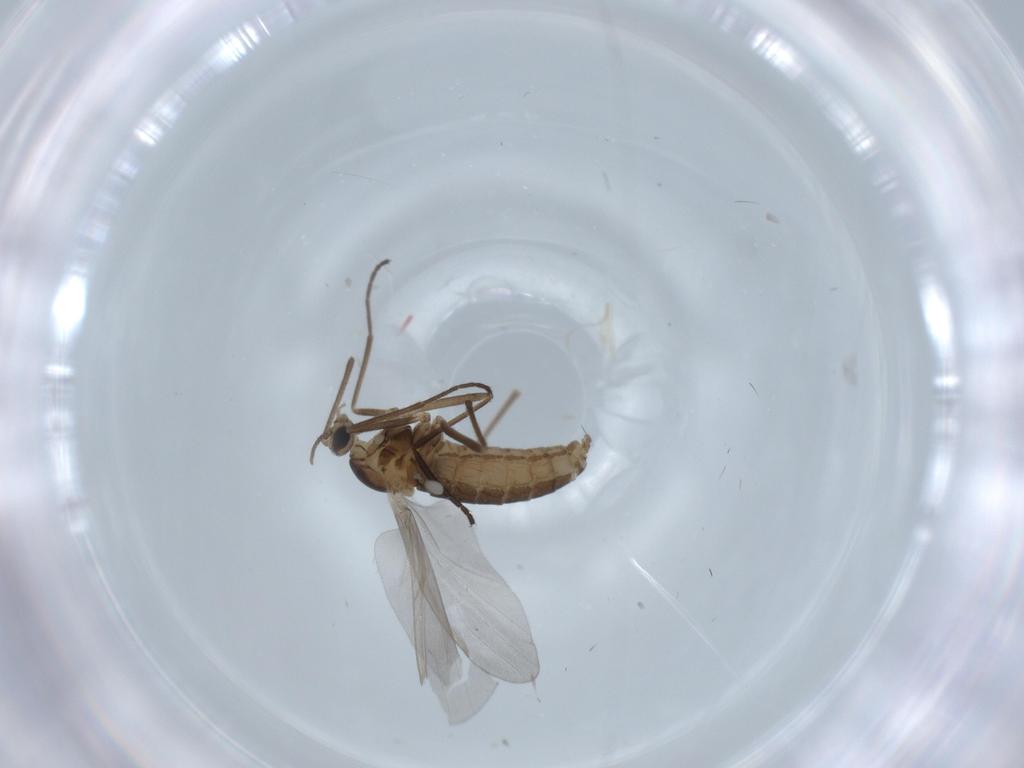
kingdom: Animalia
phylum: Arthropoda
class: Insecta
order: Diptera
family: Cecidomyiidae
